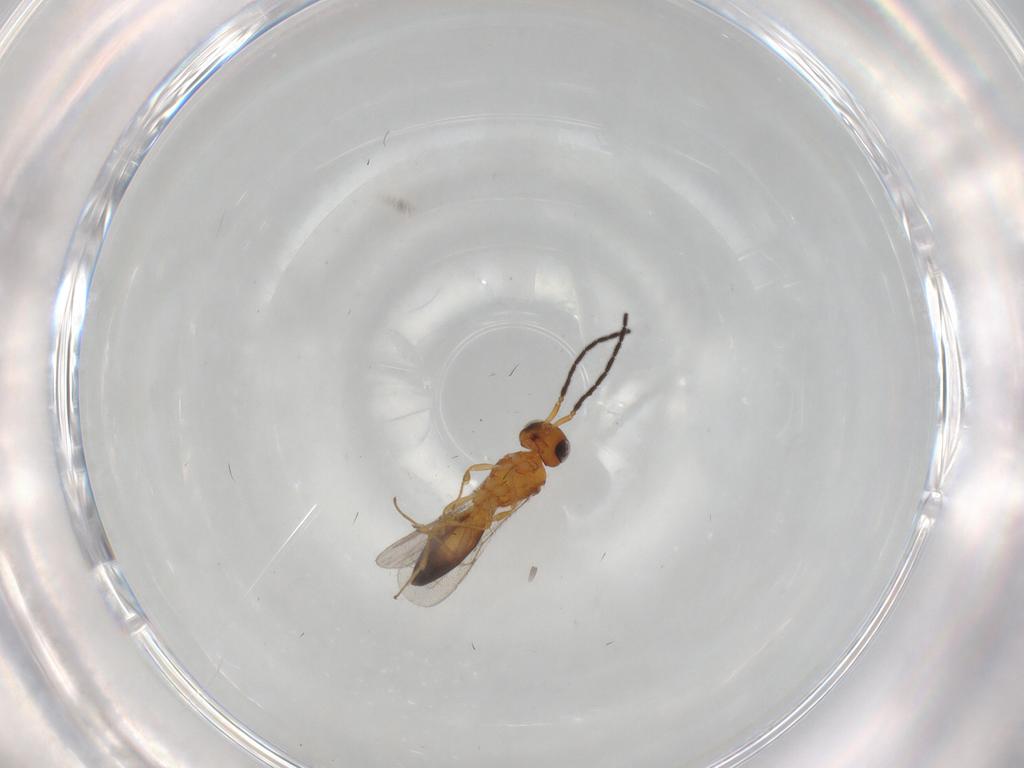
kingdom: Animalia
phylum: Arthropoda
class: Insecta
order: Hymenoptera
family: Scelionidae
